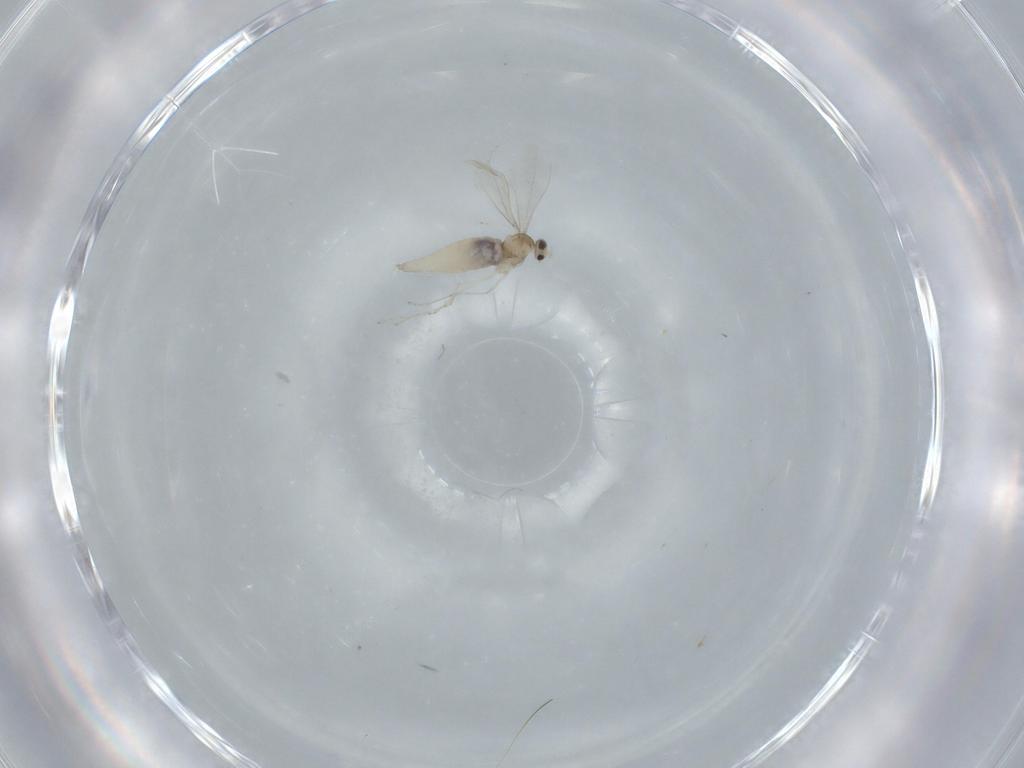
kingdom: Animalia
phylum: Arthropoda
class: Insecta
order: Diptera
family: Cecidomyiidae
